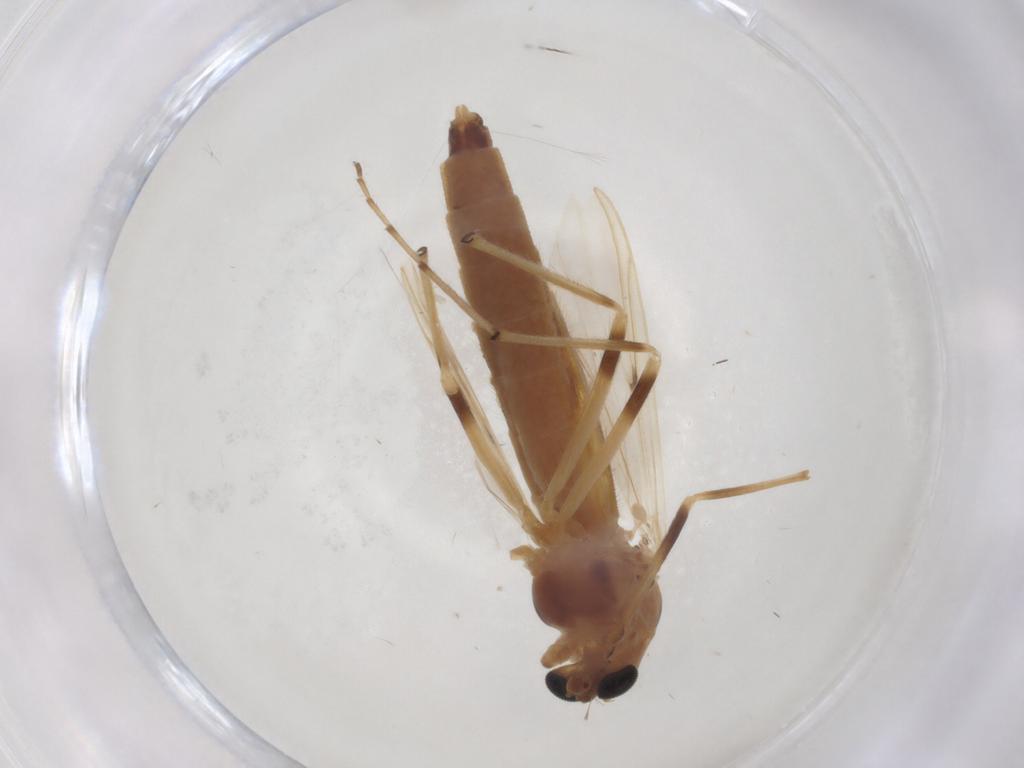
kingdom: Animalia
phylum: Arthropoda
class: Insecta
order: Diptera
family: Chironomidae
